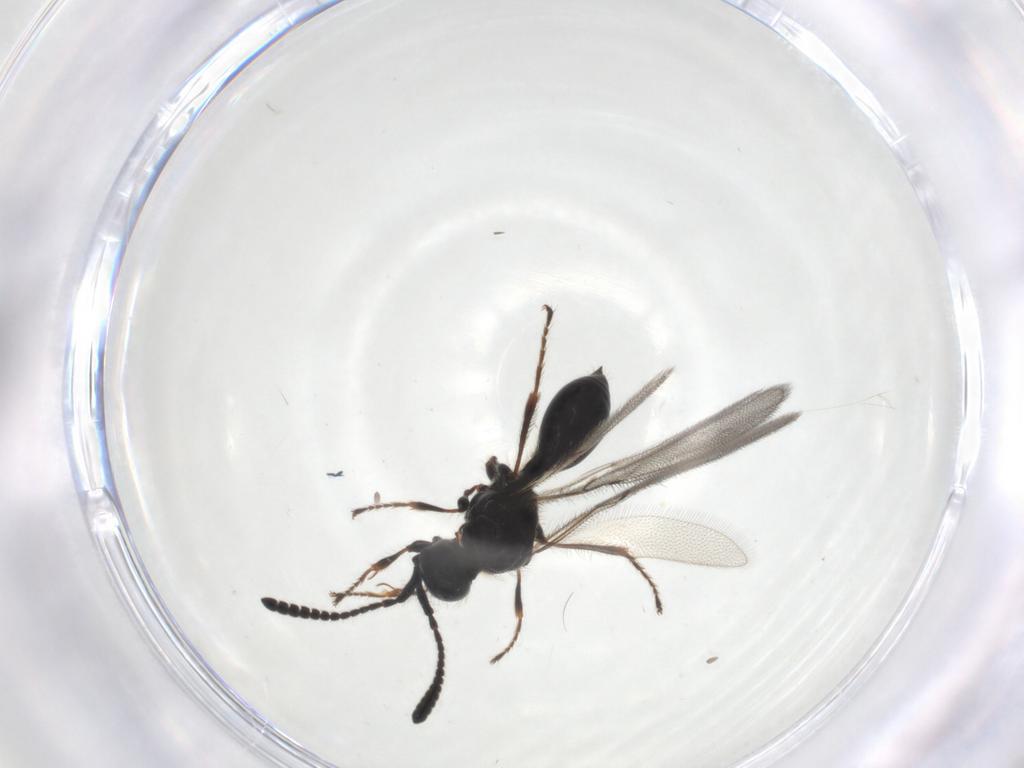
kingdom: Animalia
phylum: Arthropoda
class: Insecta
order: Hymenoptera
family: Diapriidae
